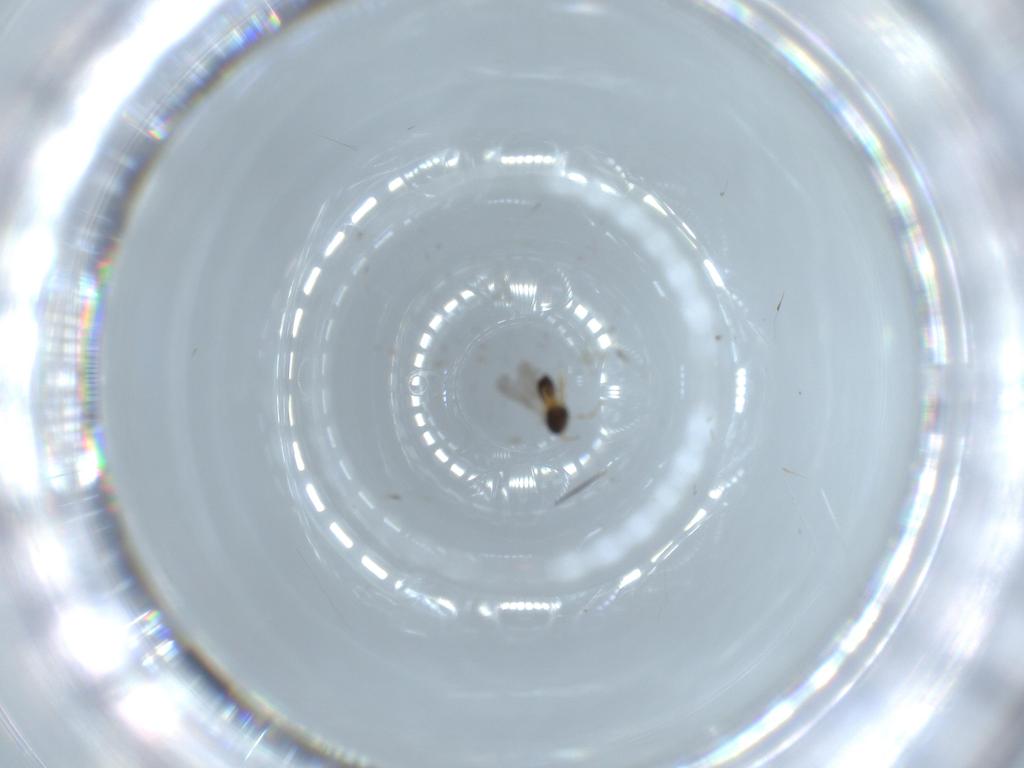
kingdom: Animalia
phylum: Arthropoda
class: Insecta
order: Hymenoptera
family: Scelionidae
